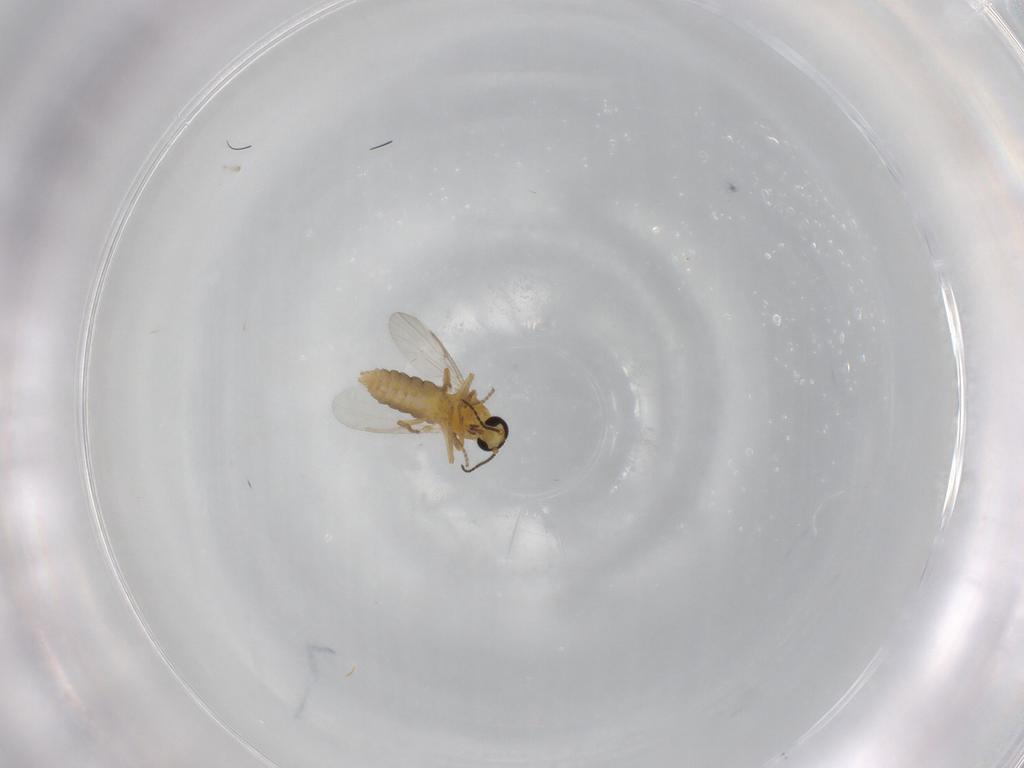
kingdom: Animalia
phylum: Arthropoda
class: Insecta
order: Diptera
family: Ceratopogonidae
